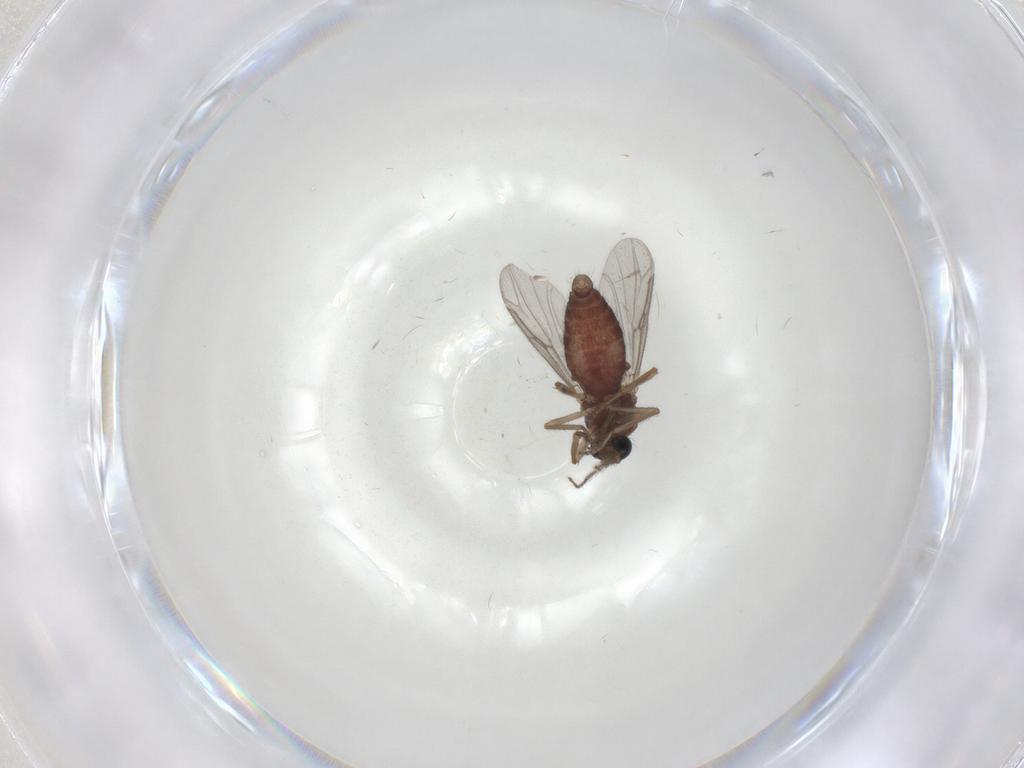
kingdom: Animalia
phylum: Arthropoda
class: Insecta
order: Diptera
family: Ceratopogonidae
